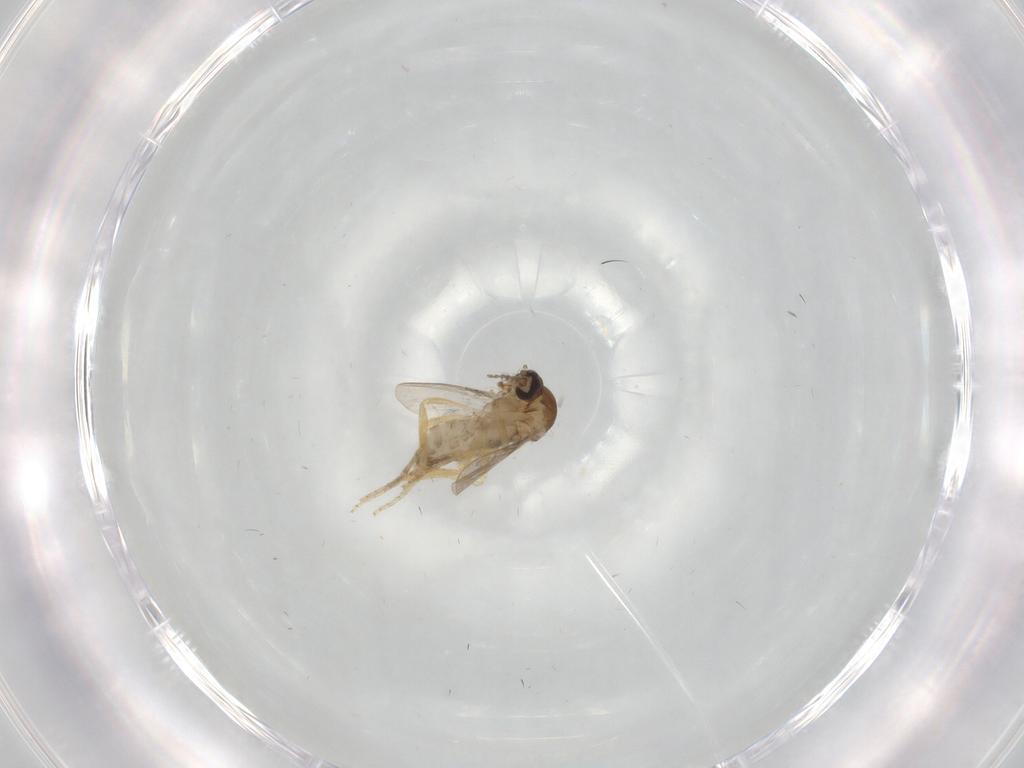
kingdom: Animalia
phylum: Arthropoda
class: Insecta
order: Diptera
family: Ceratopogonidae
